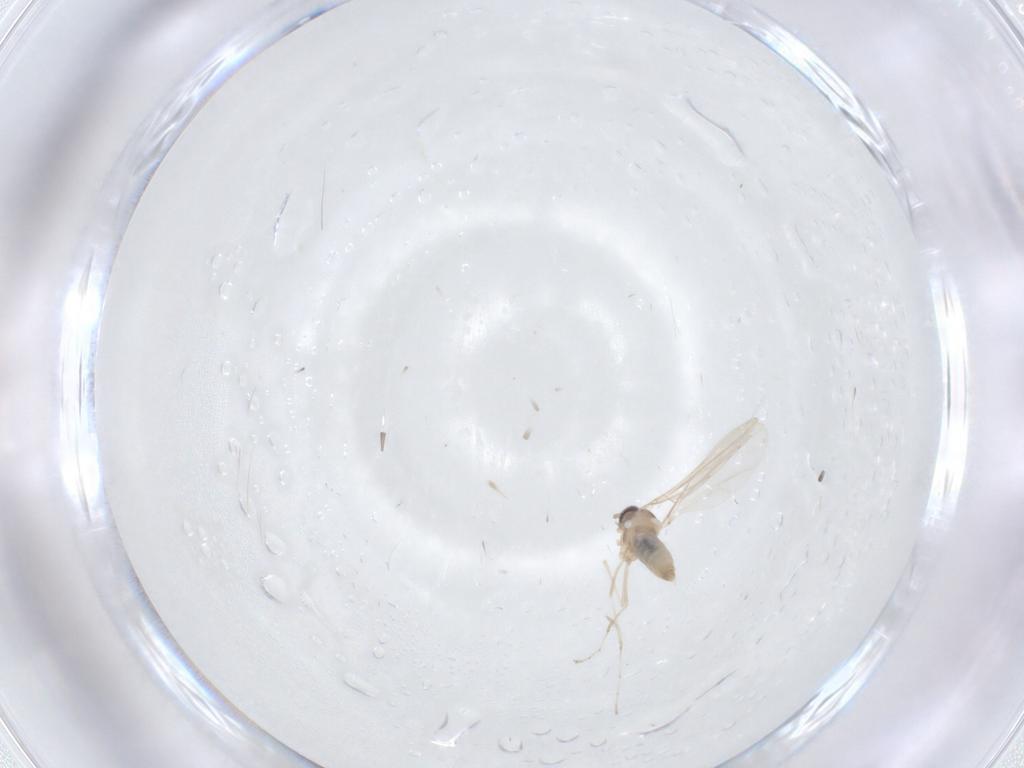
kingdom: Animalia
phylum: Arthropoda
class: Insecta
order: Diptera
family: Cecidomyiidae
